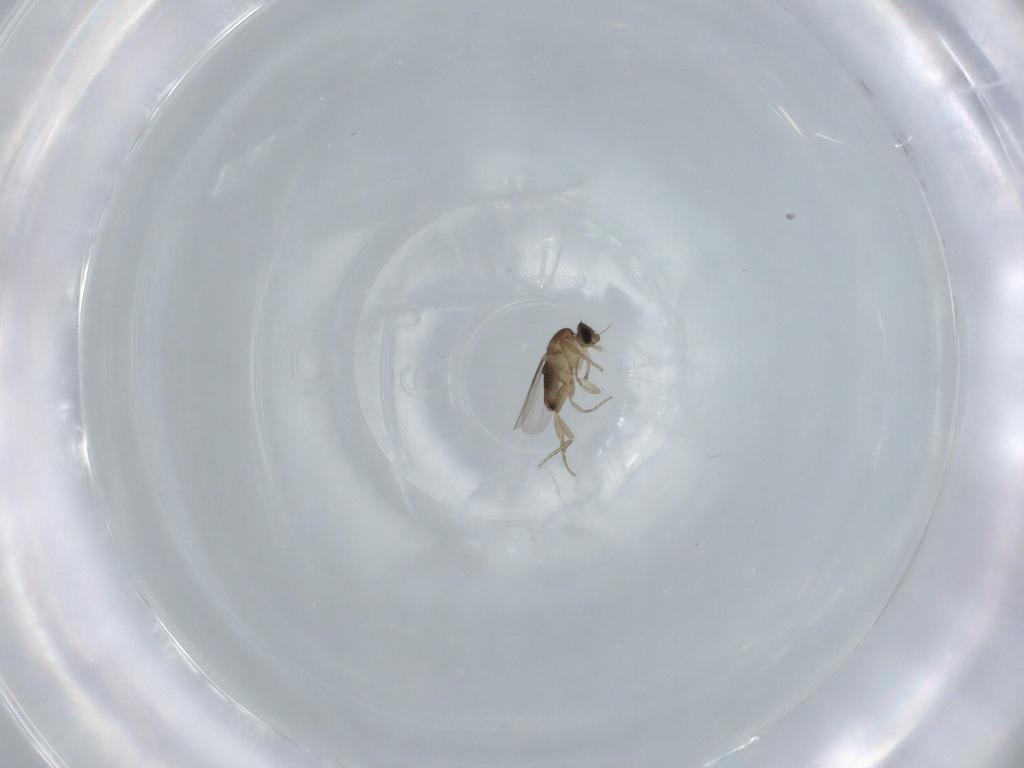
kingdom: Animalia
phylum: Arthropoda
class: Insecta
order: Diptera
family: Phoridae
